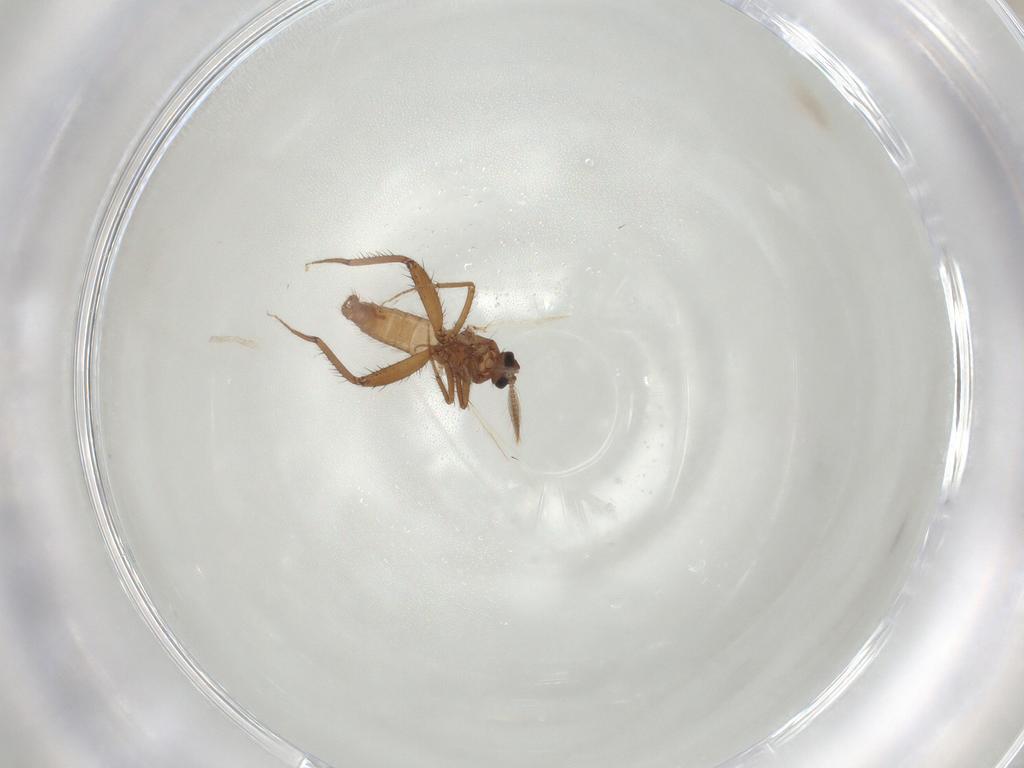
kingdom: Animalia
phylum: Arthropoda
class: Insecta
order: Diptera
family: Ceratopogonidae
